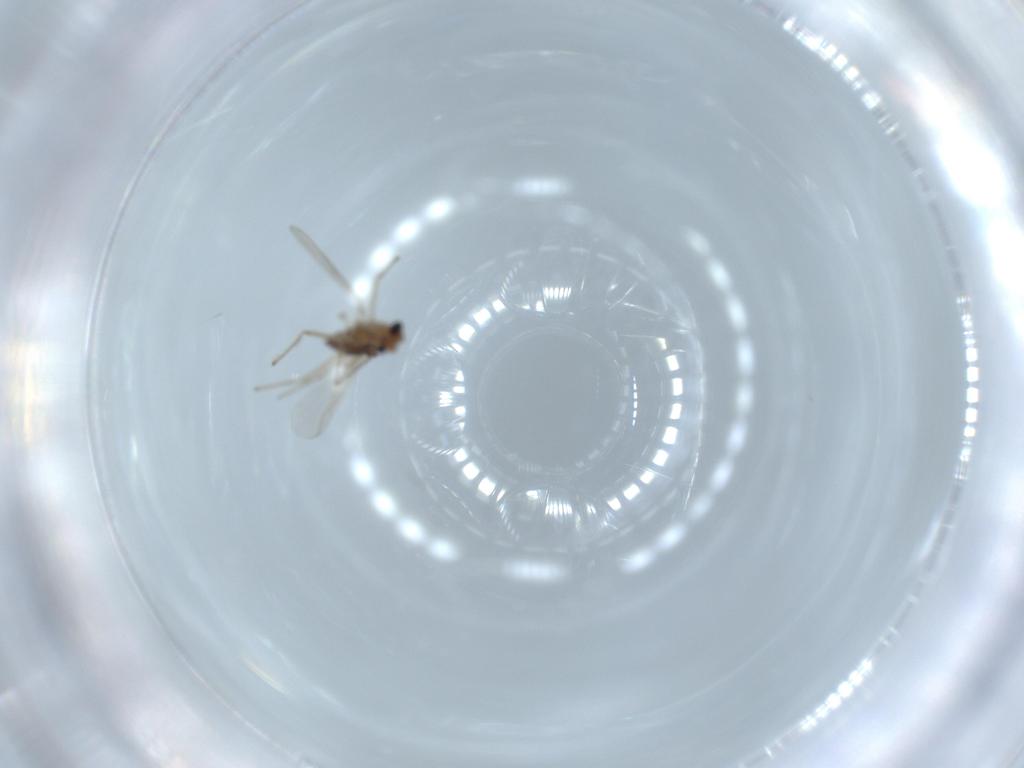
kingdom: Animalia
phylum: Arthropoda
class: Insecta
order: Diptera
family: Chironomidae
